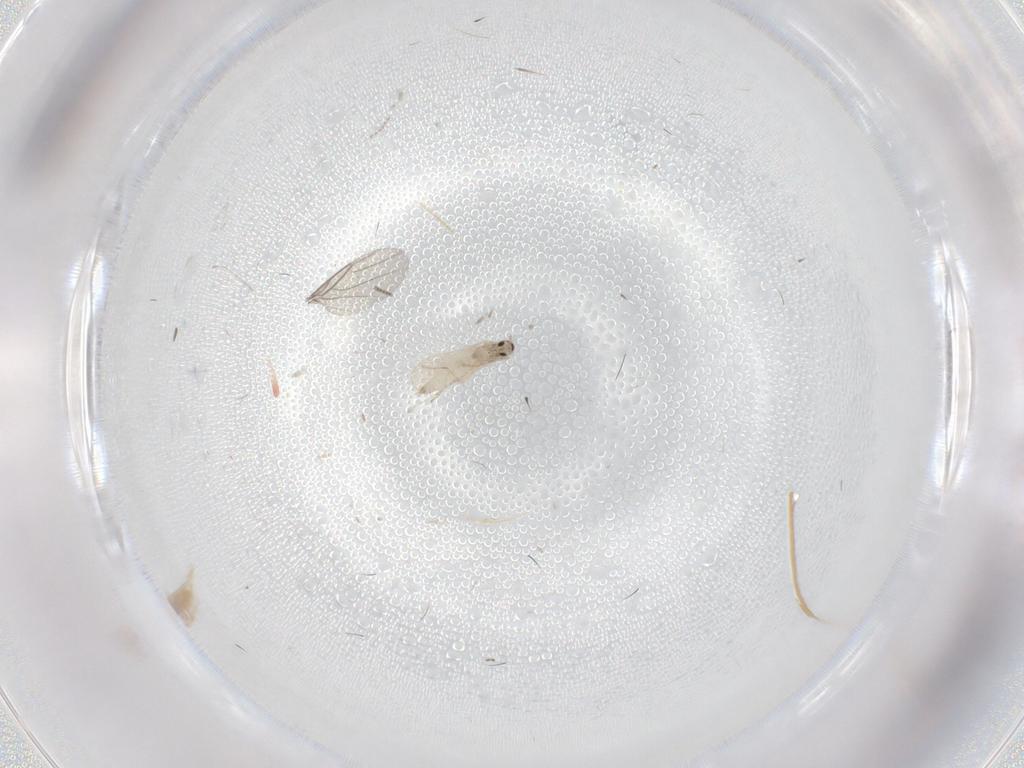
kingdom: Animalia
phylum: Arthropoda
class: Insecta
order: Diptera
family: Cecidomyiidae
